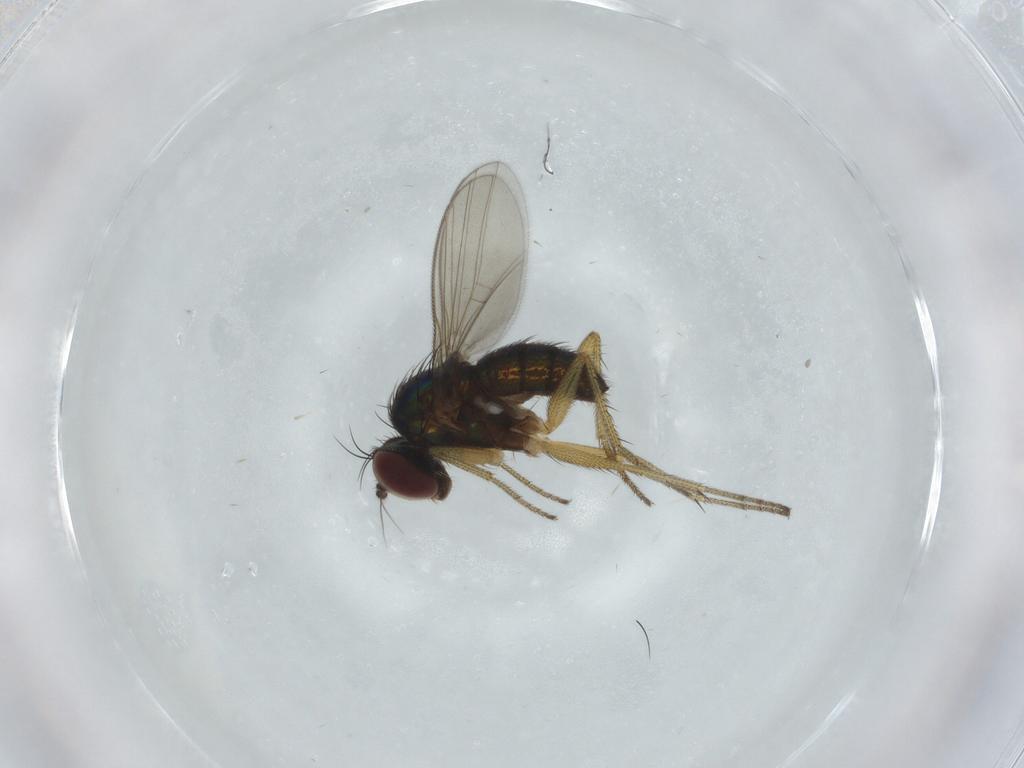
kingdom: Animalia
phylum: Arthropoda
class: Insecta
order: Diptera
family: Dolichopodidae
